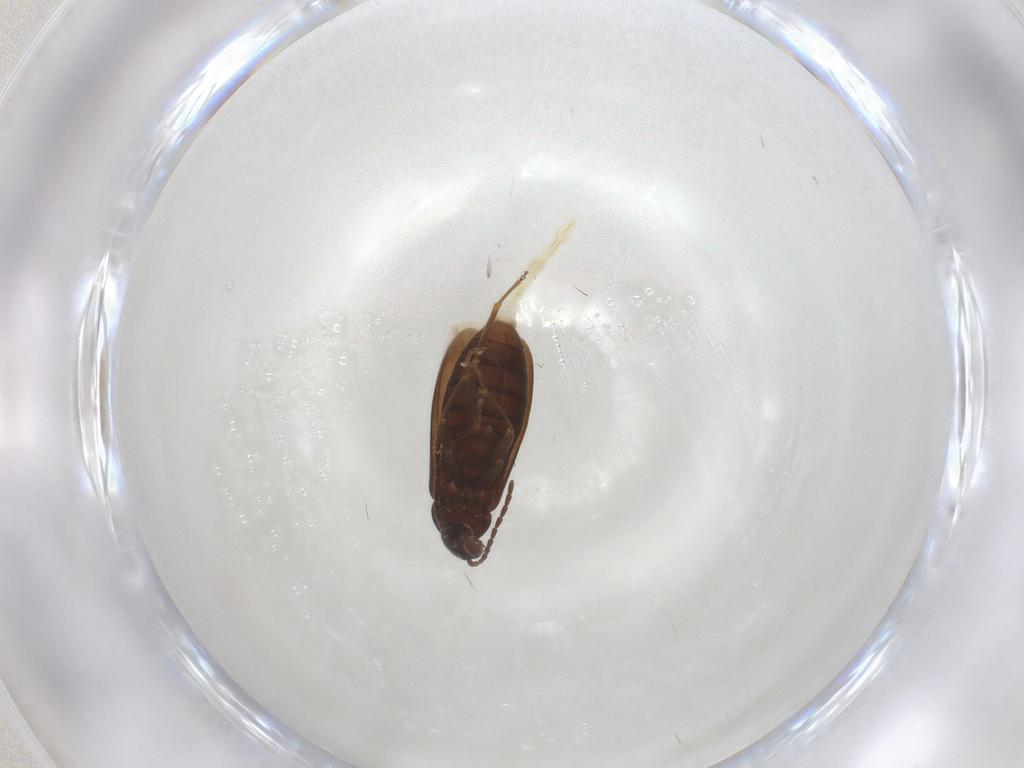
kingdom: Animalia
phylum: Arthropoda
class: Insecta
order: Coleoptera
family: Scraptiidae
